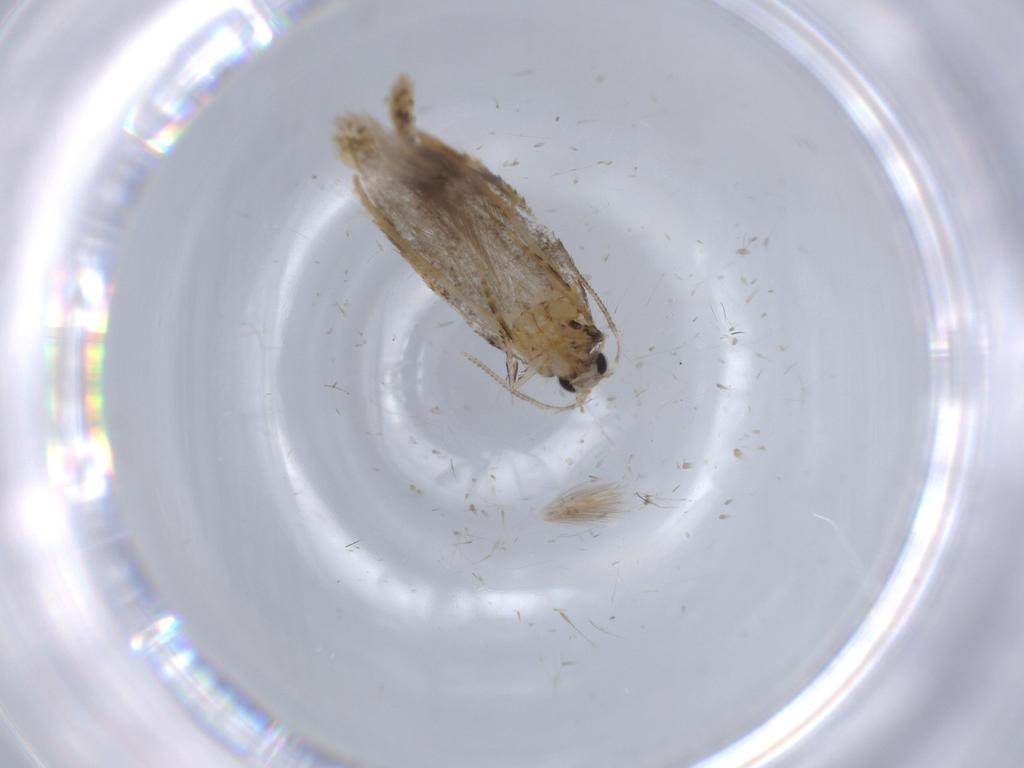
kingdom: Animalia
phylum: Arthropoda
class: Insecta
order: Lepidoptera
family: Tineidae
